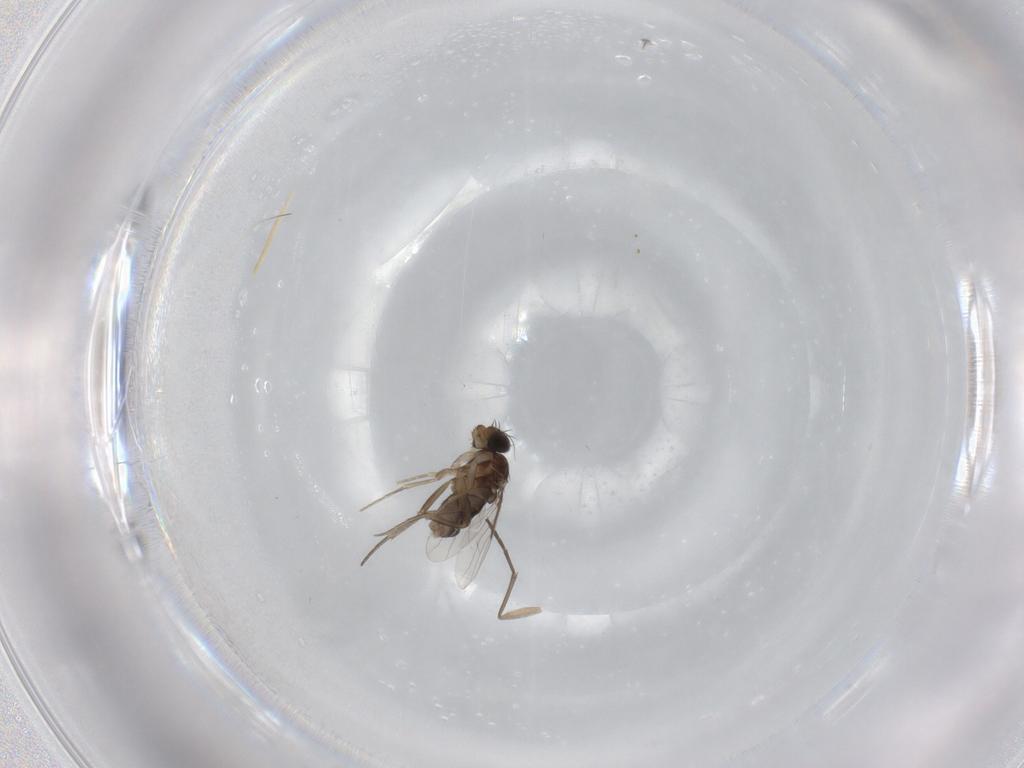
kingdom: Animalia
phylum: Arthropoda
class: Insecta
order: Diptera
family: Phoridae
